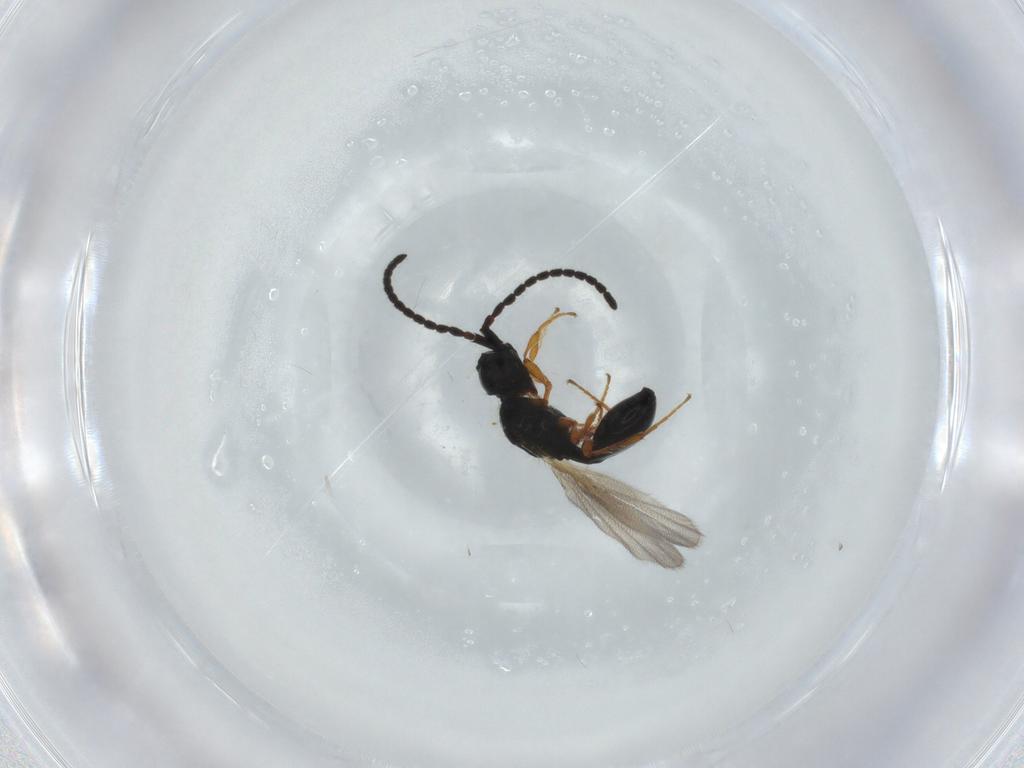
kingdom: Animalia
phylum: Arthropoda
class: Insecta
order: Hymenoptera
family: Diapriidae
